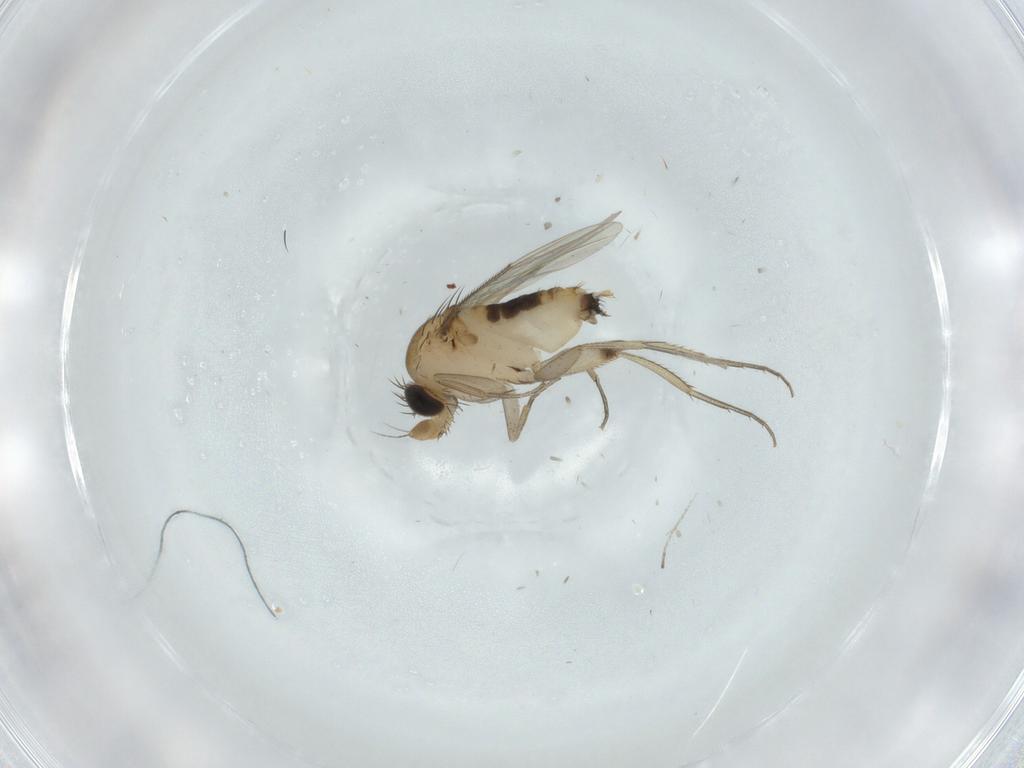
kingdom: Animalia
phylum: Arthropoda
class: Insecta
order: Diptera
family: Phoridae
